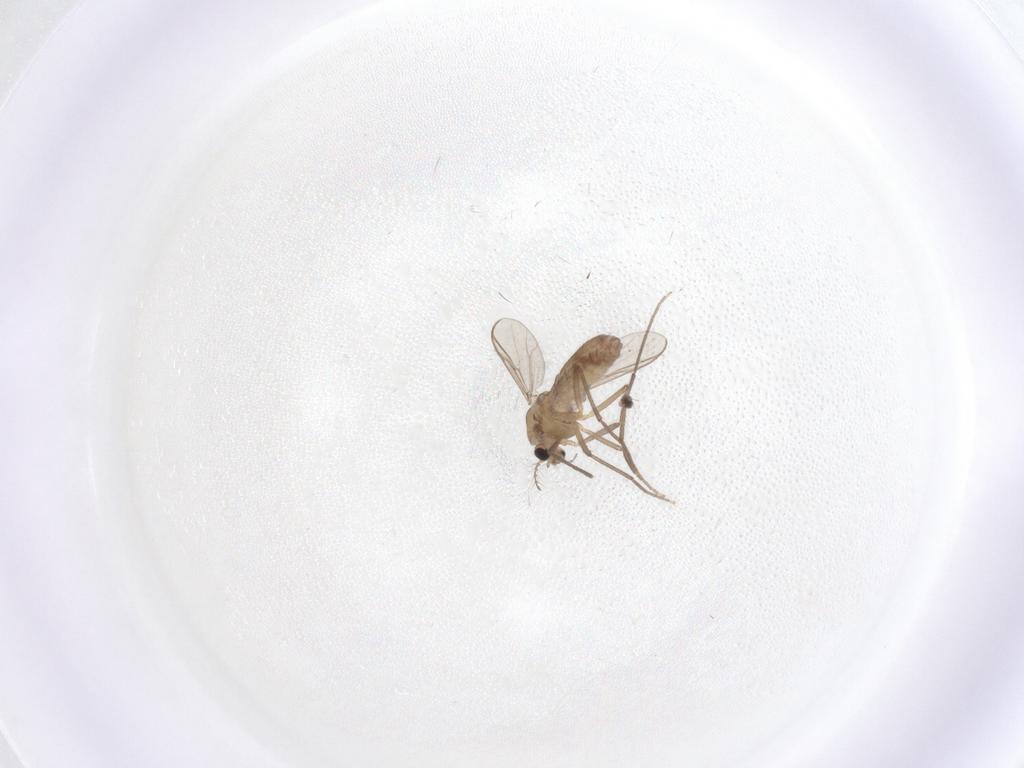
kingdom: Animalia
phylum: Arthropoda
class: Insecta
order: Diptera
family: Chironomidae
